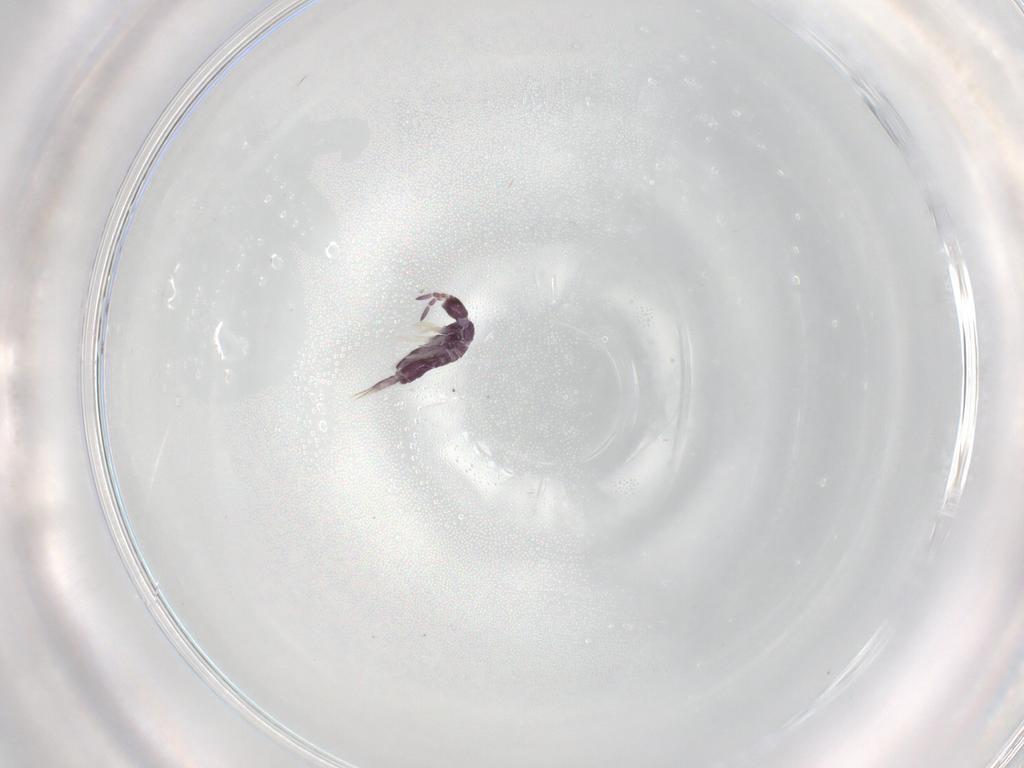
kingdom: Animalia
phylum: Arthropoda
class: Collembola
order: Entomobryomorpha
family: Entomobryidae
